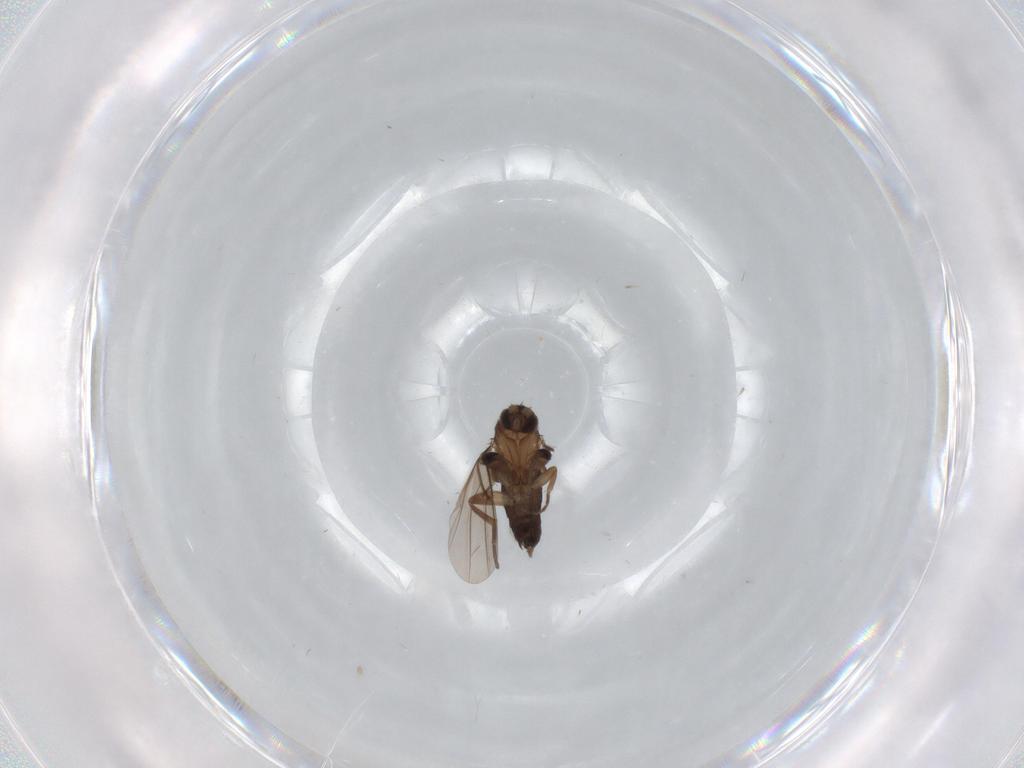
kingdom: Animalia
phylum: Arthropoda
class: Insecta
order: Diptera
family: Phoridae
